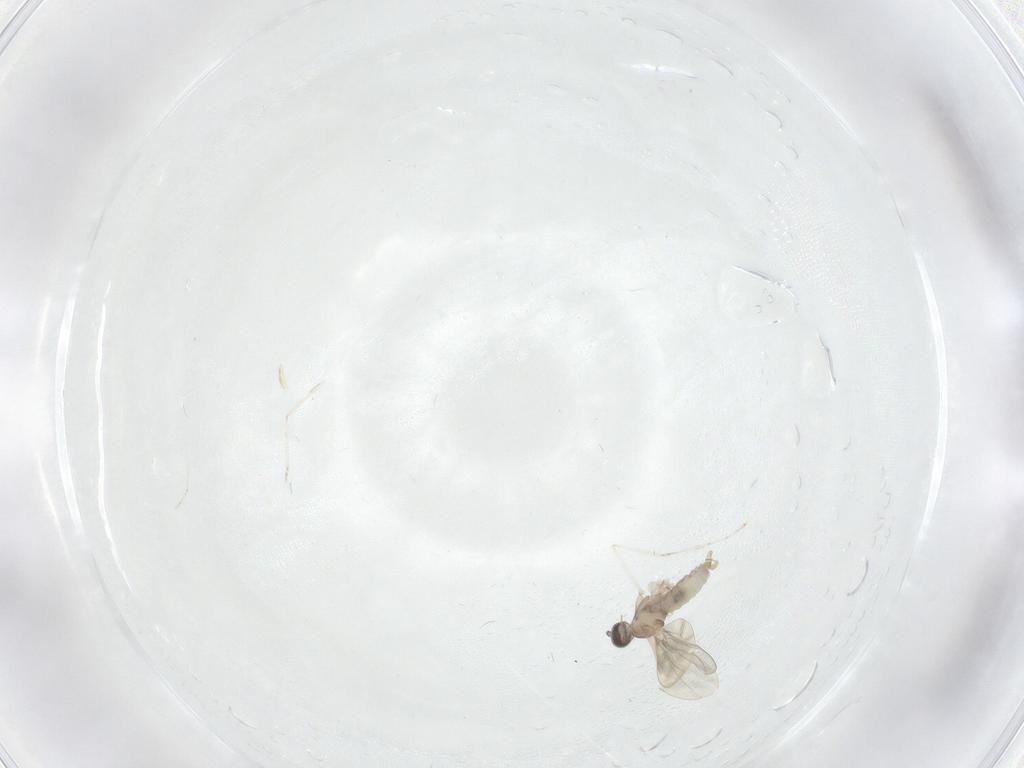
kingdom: Animalia
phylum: Arthropoda
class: Insecta
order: Diptera
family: Cecidomyiidae
